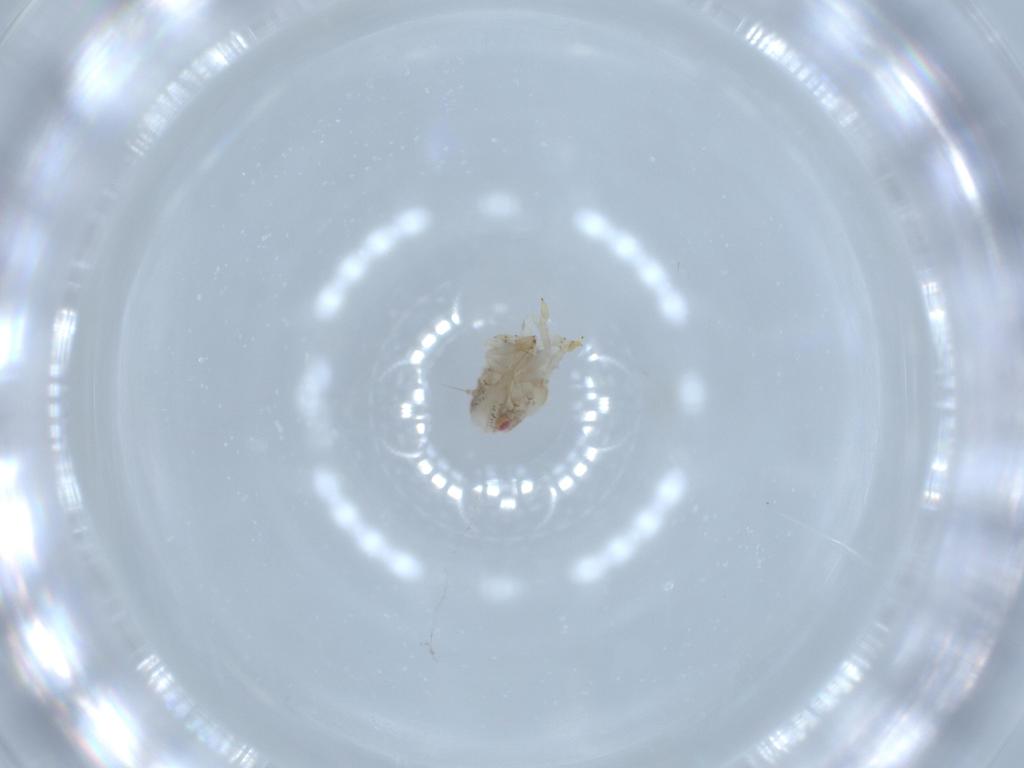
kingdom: Animalia
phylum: Arthropoda
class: Insecta
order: Hemiptera
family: Acanaloniidae
